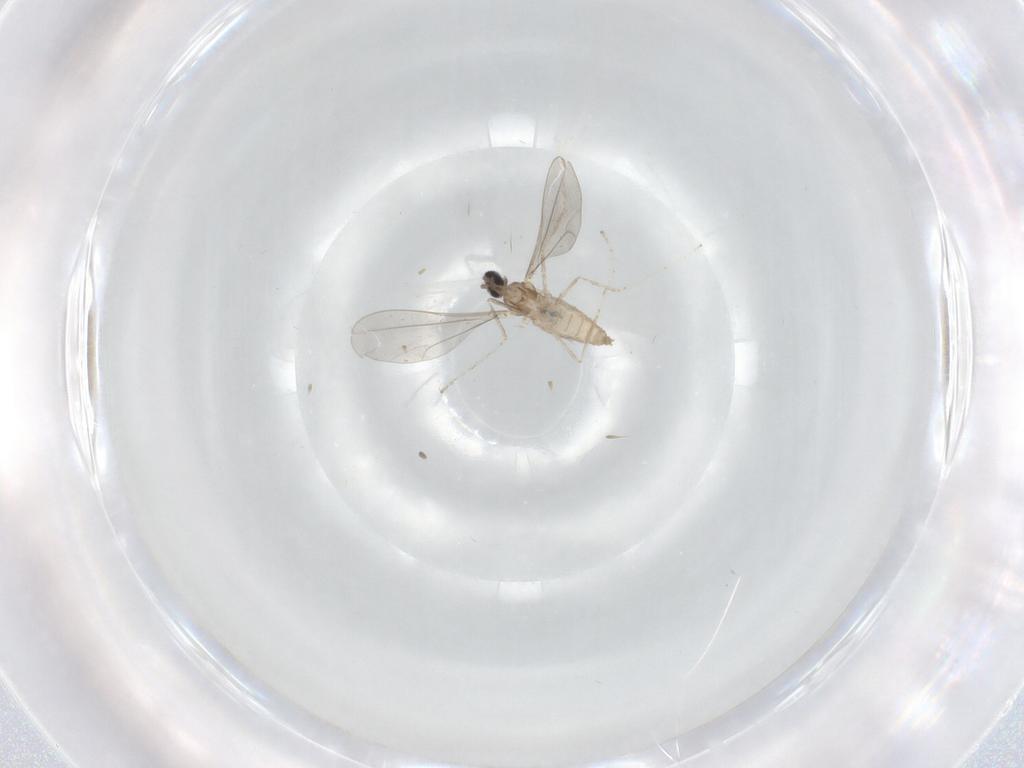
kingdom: Animalia
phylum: Arthropoda
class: Insecta
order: Diptera
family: Cecidomyiidae
